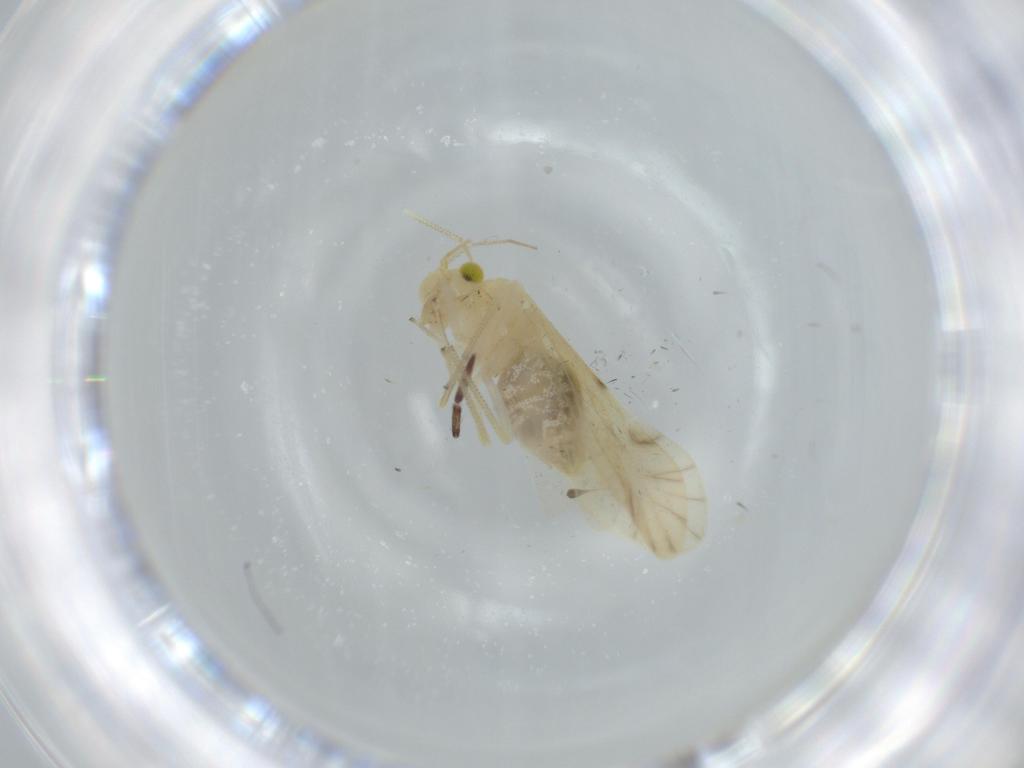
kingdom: Animalia
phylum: Arthropoda
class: Insecta
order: Psocodea
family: Caeciliusidae
